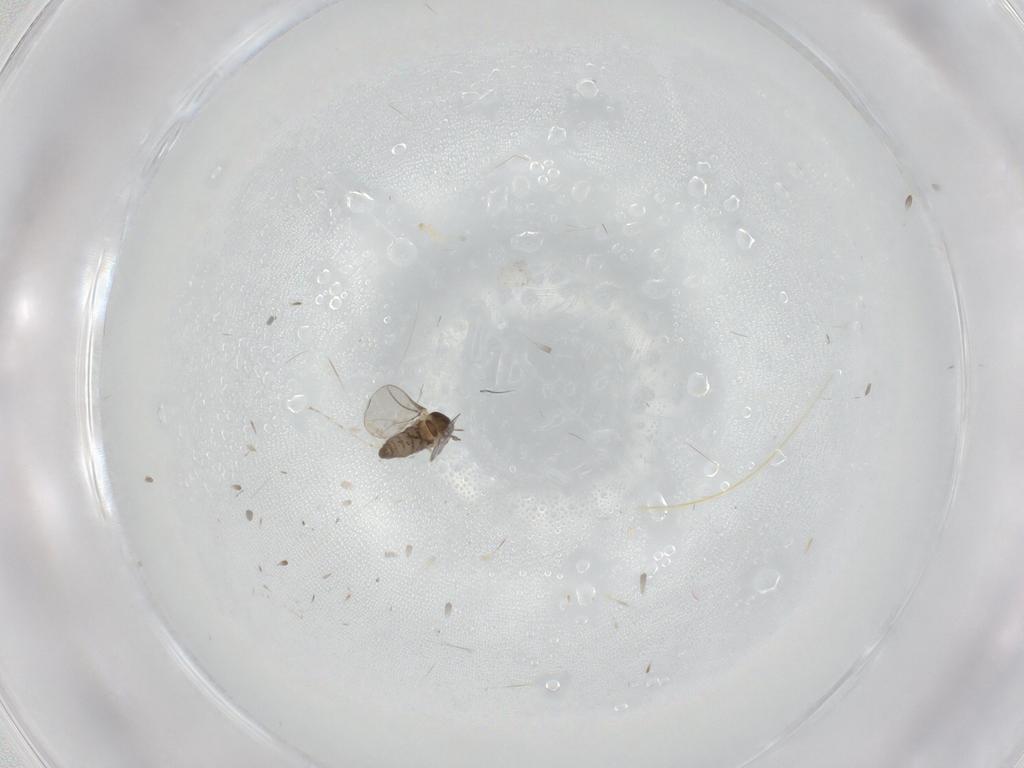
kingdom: Animalia
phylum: Arthropoda
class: Insecta
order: Diptera
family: Cecidomyiidae
